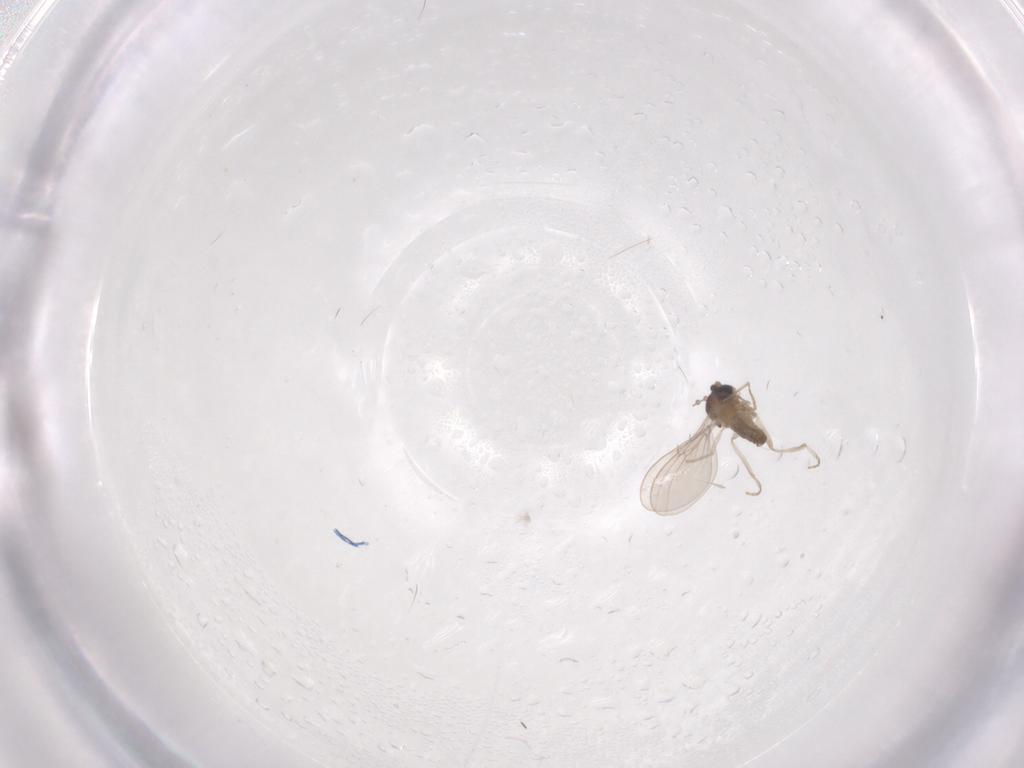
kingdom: Animalia
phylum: Arthropoda
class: Insecta
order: Diptera
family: Cecidomyiidae
